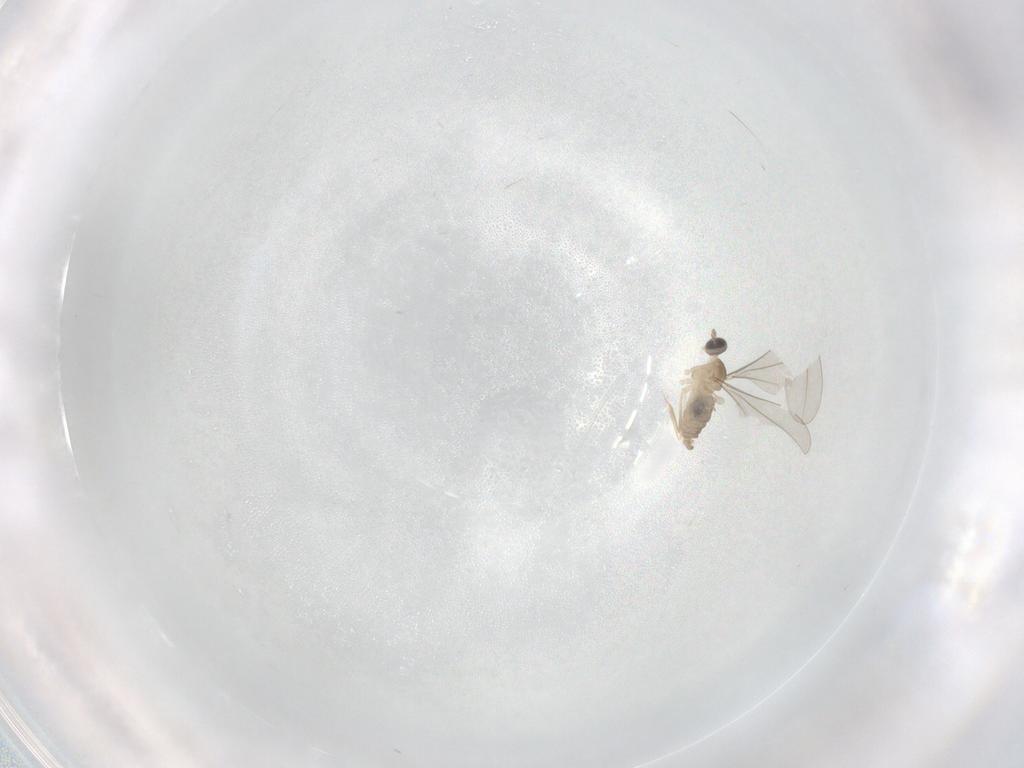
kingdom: Animalia
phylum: Arthropoda
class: Insecta
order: Diptera
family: Cecidomyiidae
